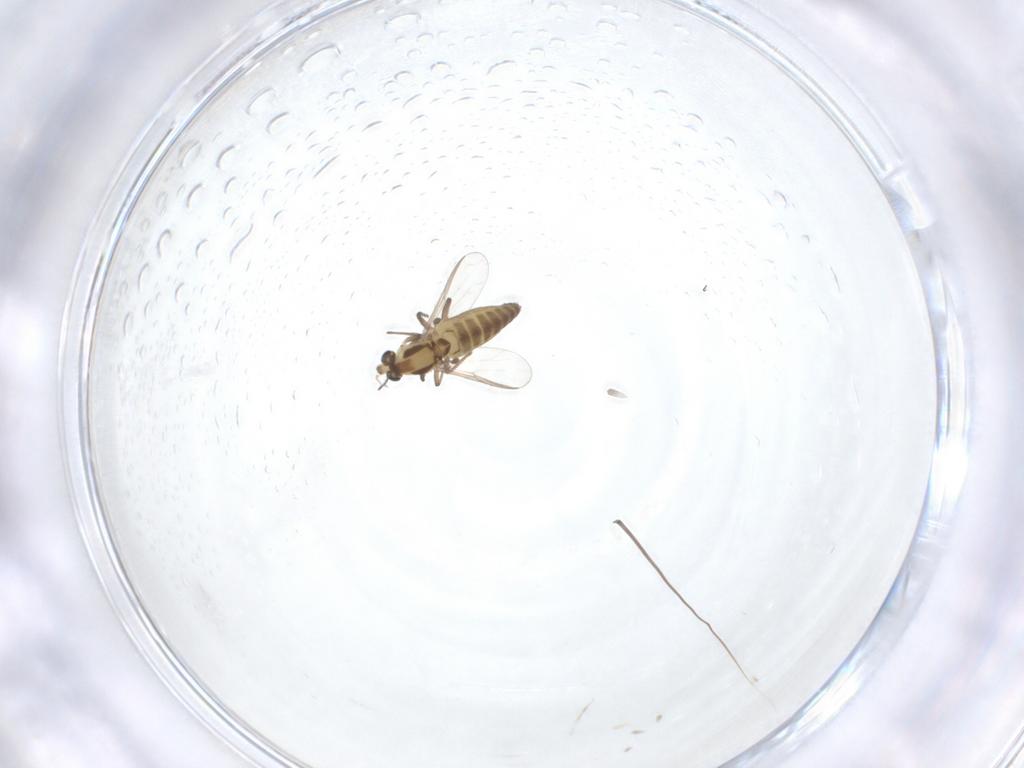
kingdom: Animalia
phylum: Arthropoda
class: Insecta
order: Diptera
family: Chironomidae
